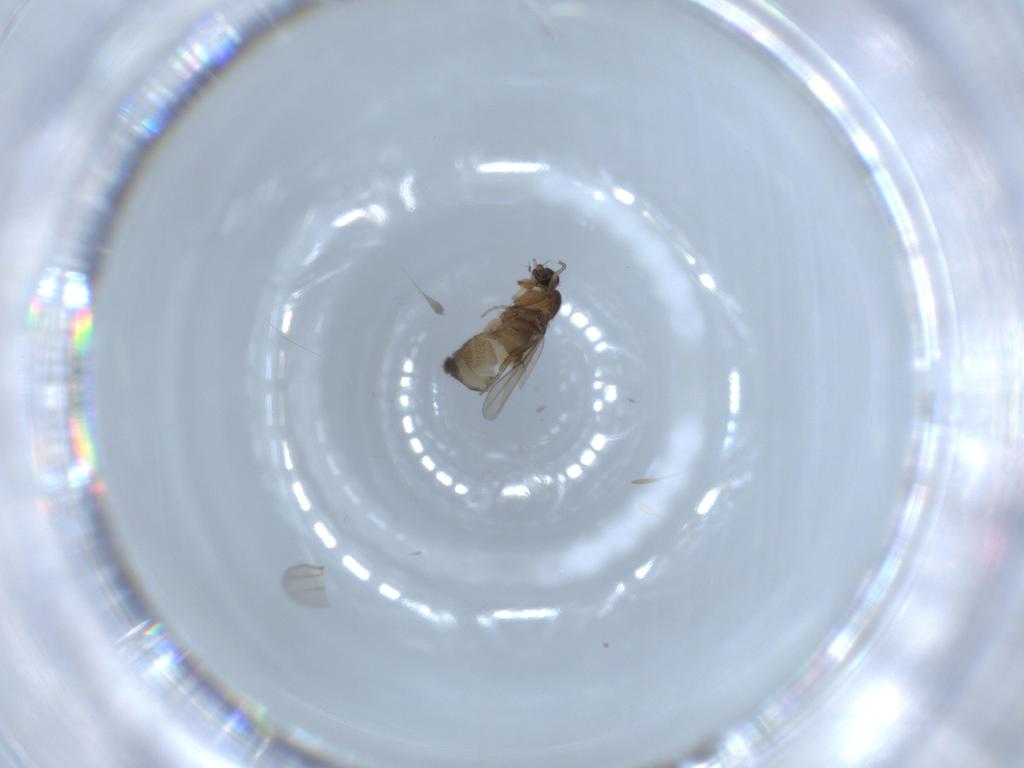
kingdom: Animalia
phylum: Arthropoda
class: Insecta
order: Diptera
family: Phoridae
